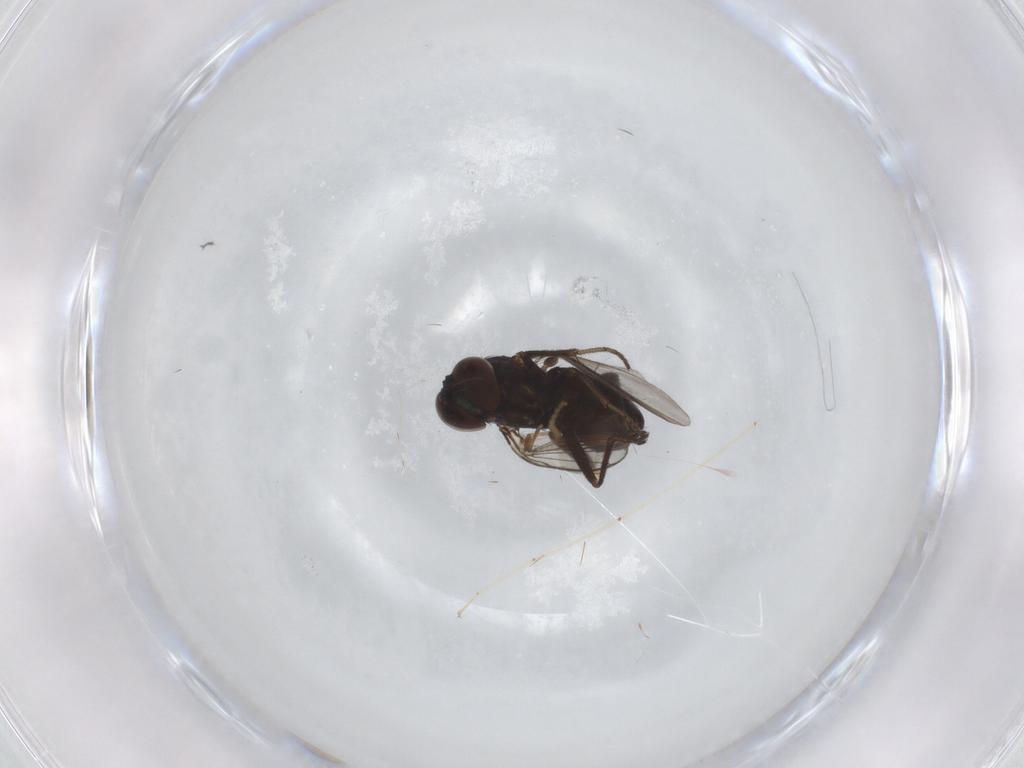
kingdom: Animalia
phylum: Arthropoda
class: Insecta
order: Diptera
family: Dolichopodidae
